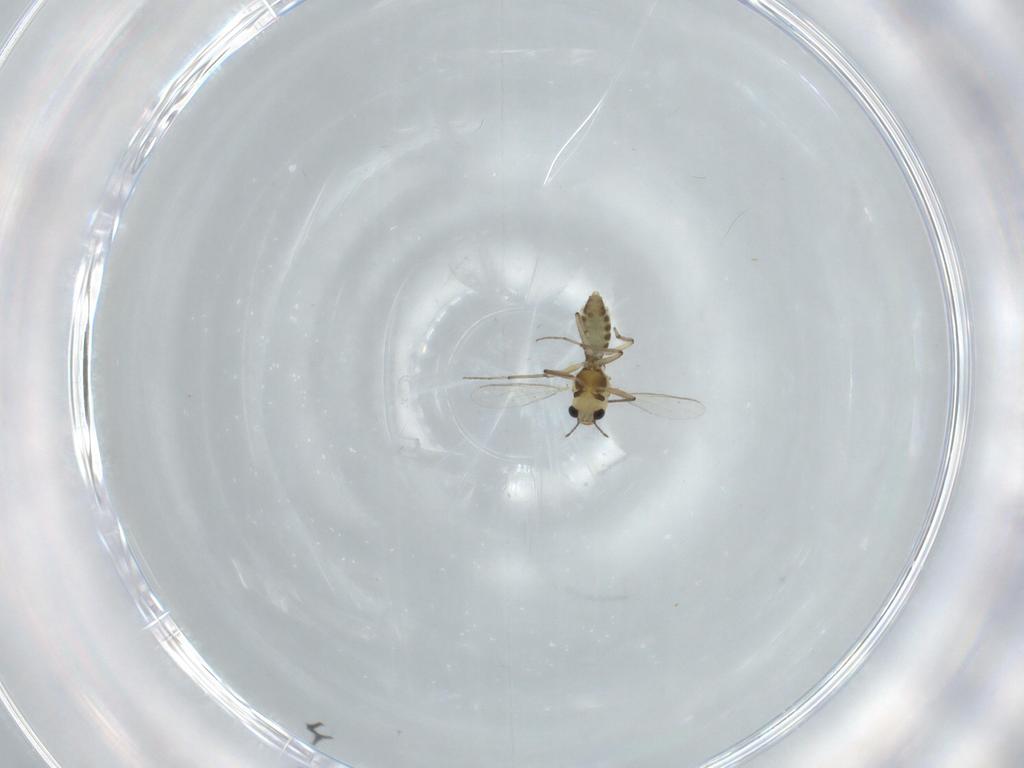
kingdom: Animalia
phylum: Arthropoda
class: Insecta
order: Diptera
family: Chironomidae
